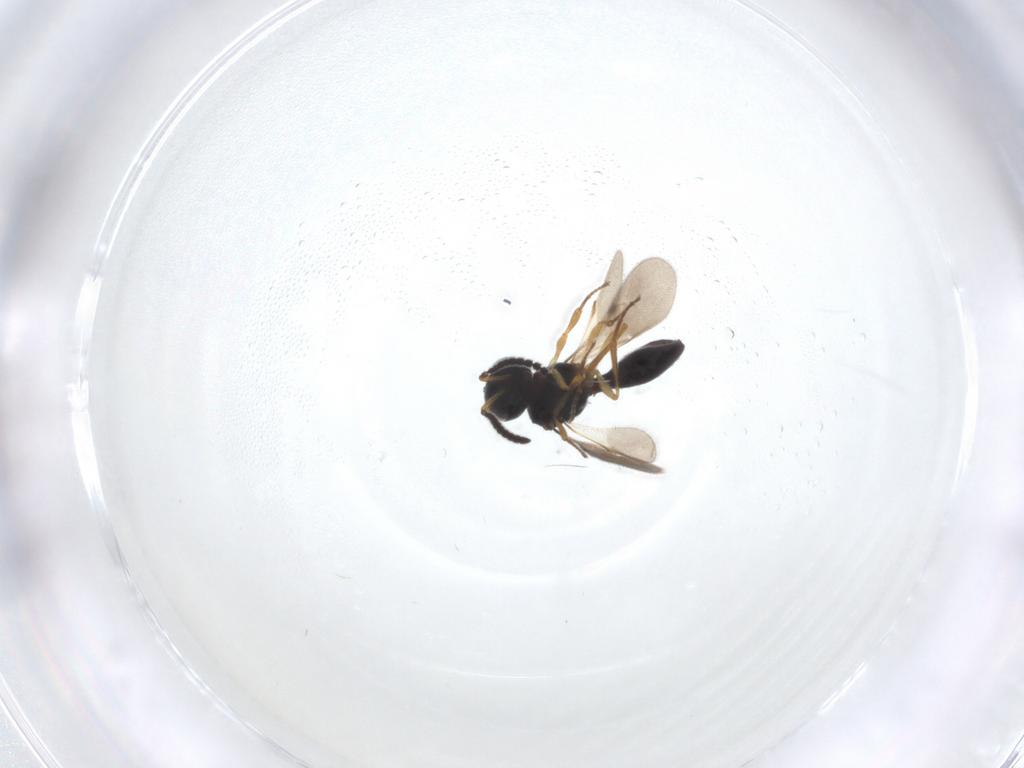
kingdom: Animalia
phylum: Arthropoda
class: Insecta
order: Hymenoptera
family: Scelionidae
